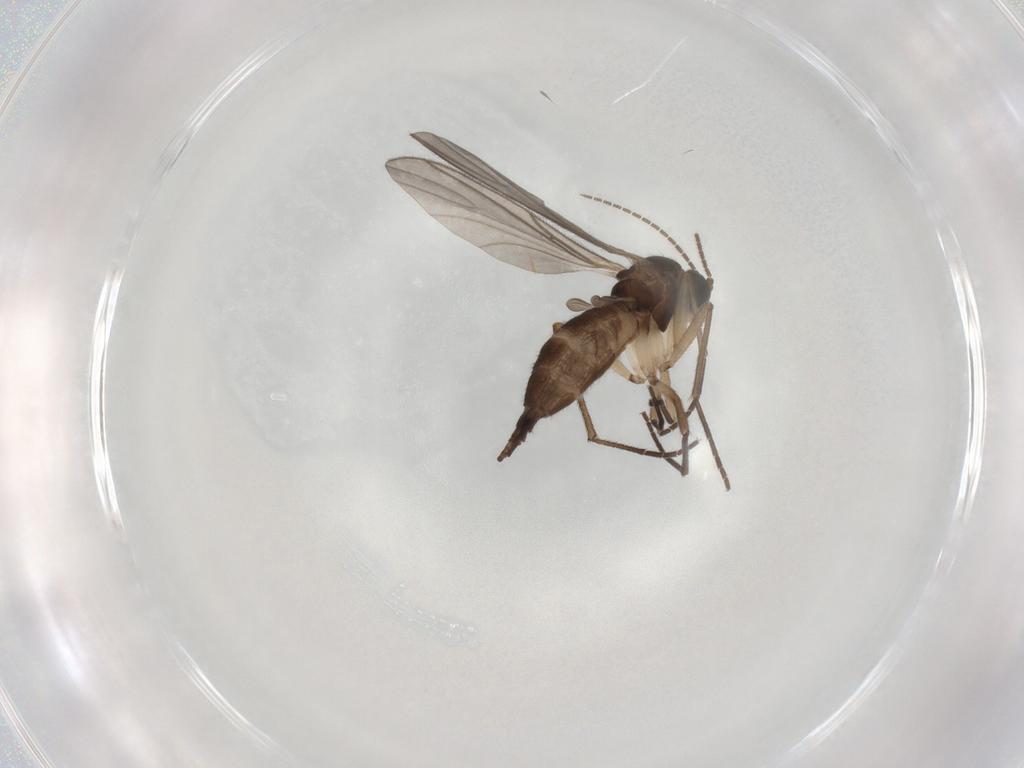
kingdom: Animalia
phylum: Arthropoda
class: Insecta
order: Diptera
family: Sciaridae
